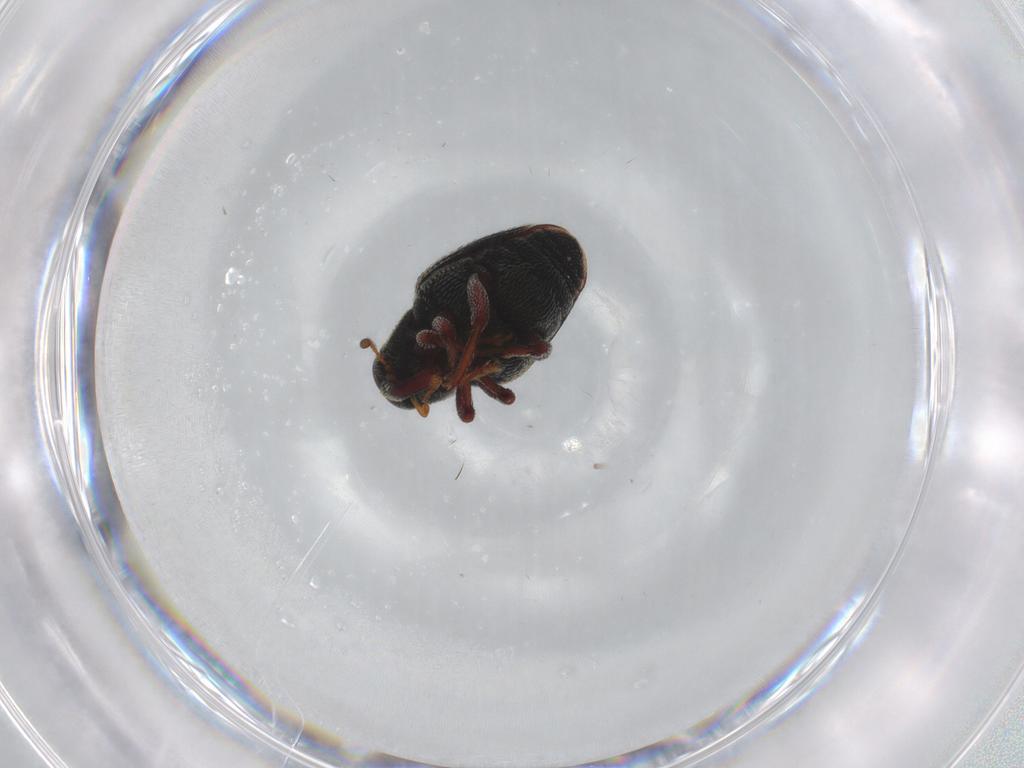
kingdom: Animalia
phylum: Arthropoda
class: Insecta
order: Coleoptera
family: Curculionidae
